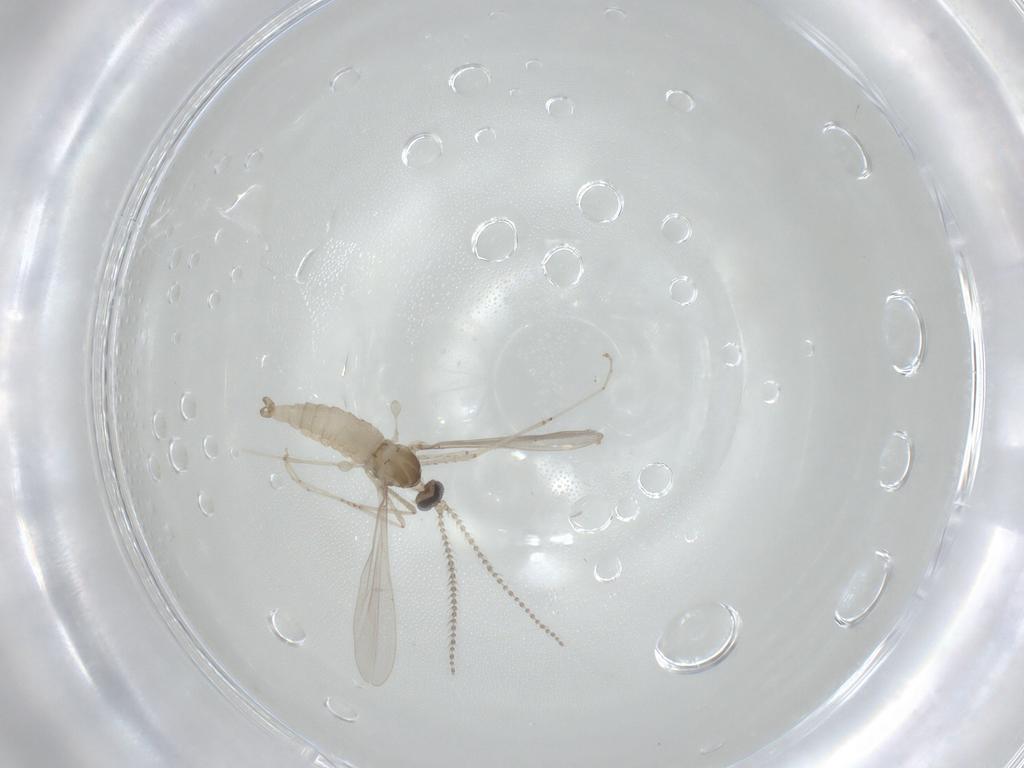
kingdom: Animalia
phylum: Arthropoda
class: Insecta
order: Diptera
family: Cecidomyiidae
